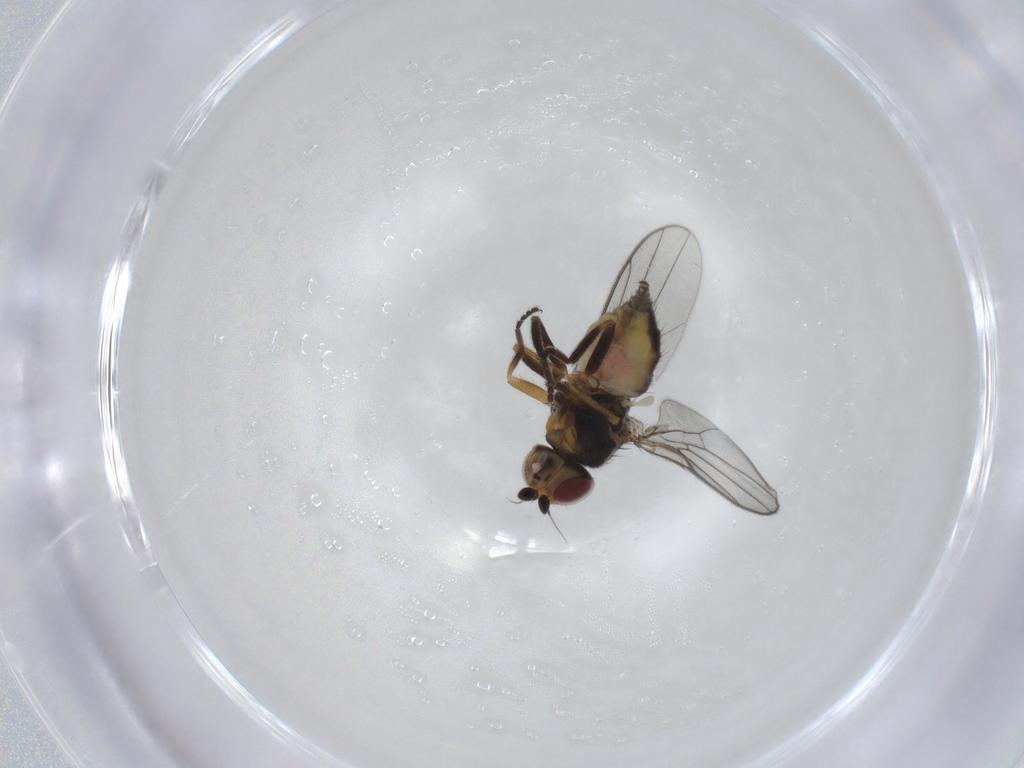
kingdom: Animalia
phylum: Arthropoda
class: Insecta
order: Diptera
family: Chloropidae
